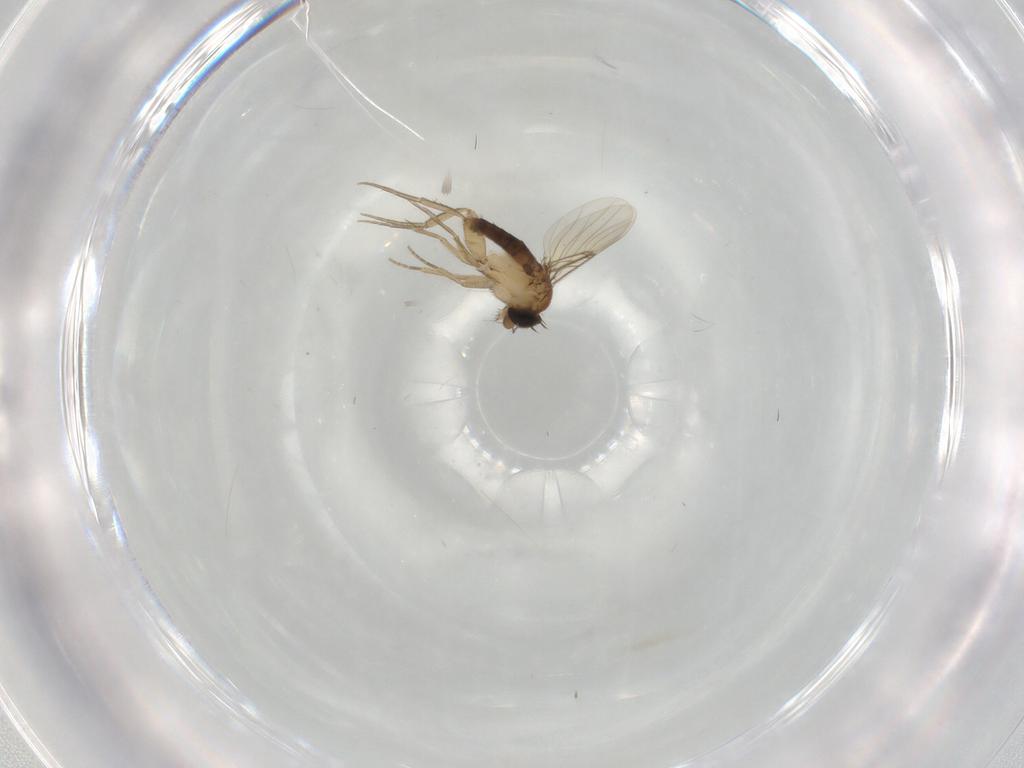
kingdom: Animalia
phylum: Arthropoda
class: Insecta
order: Diptera
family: Phoridae
